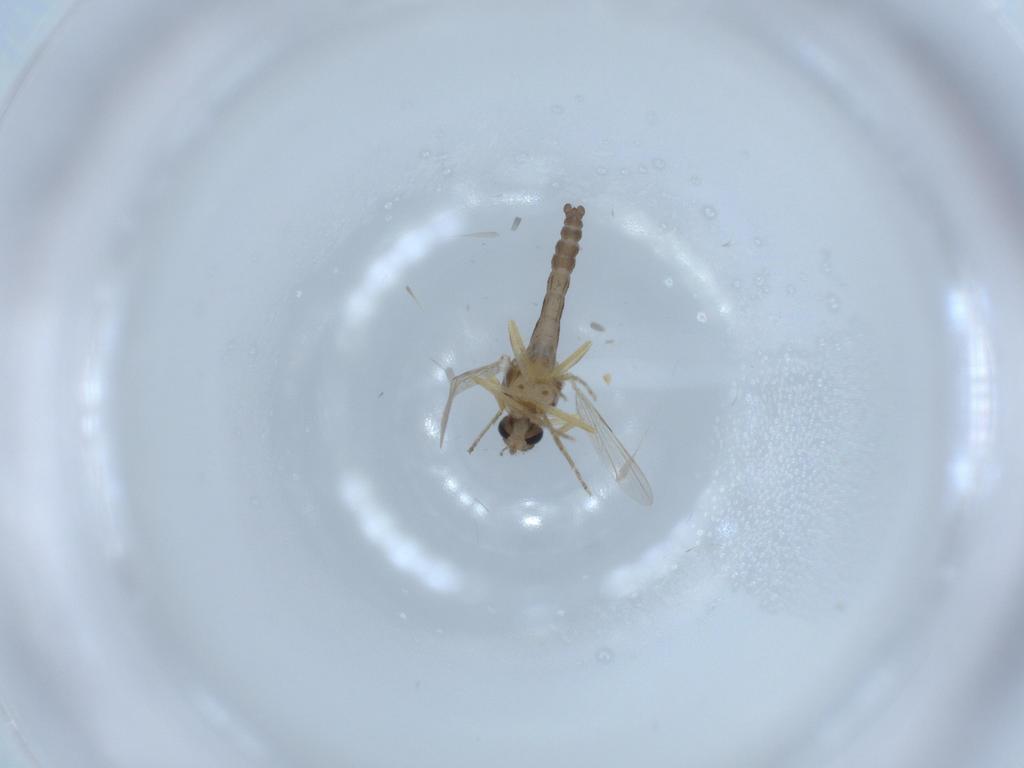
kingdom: Animalia
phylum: Arthropoda
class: Insecta
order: Diptera
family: Ceratopogonidae
